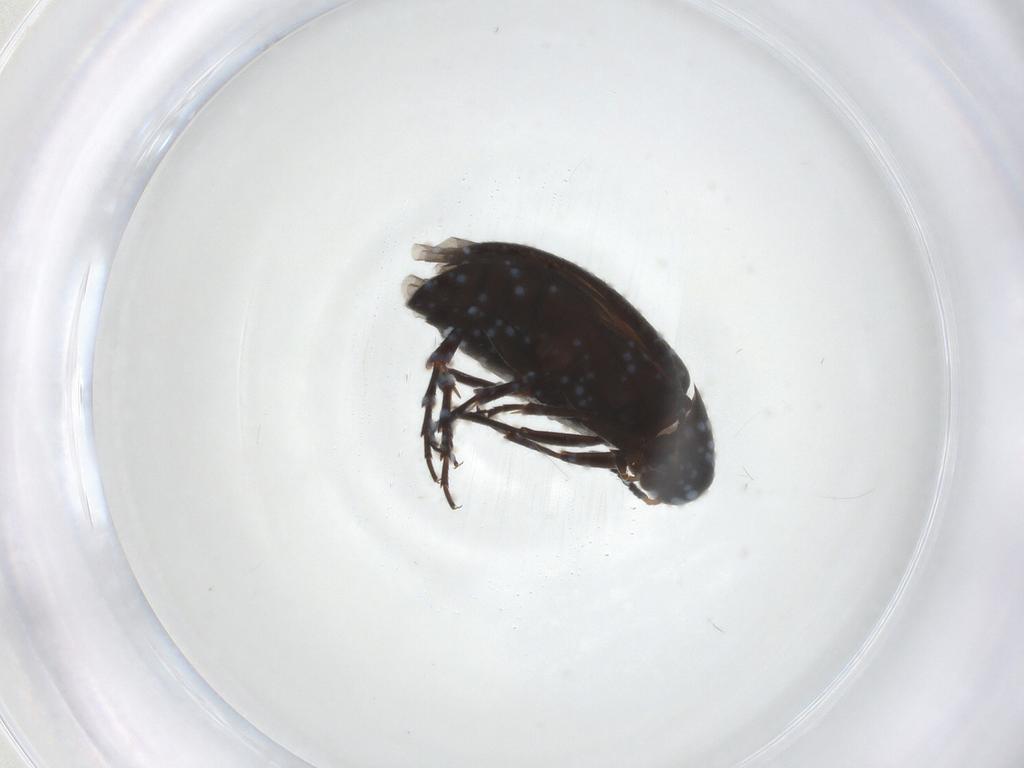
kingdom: Animalia
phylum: Arthropoda
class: Insecta
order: Coleoptera
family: Scraptiidae
